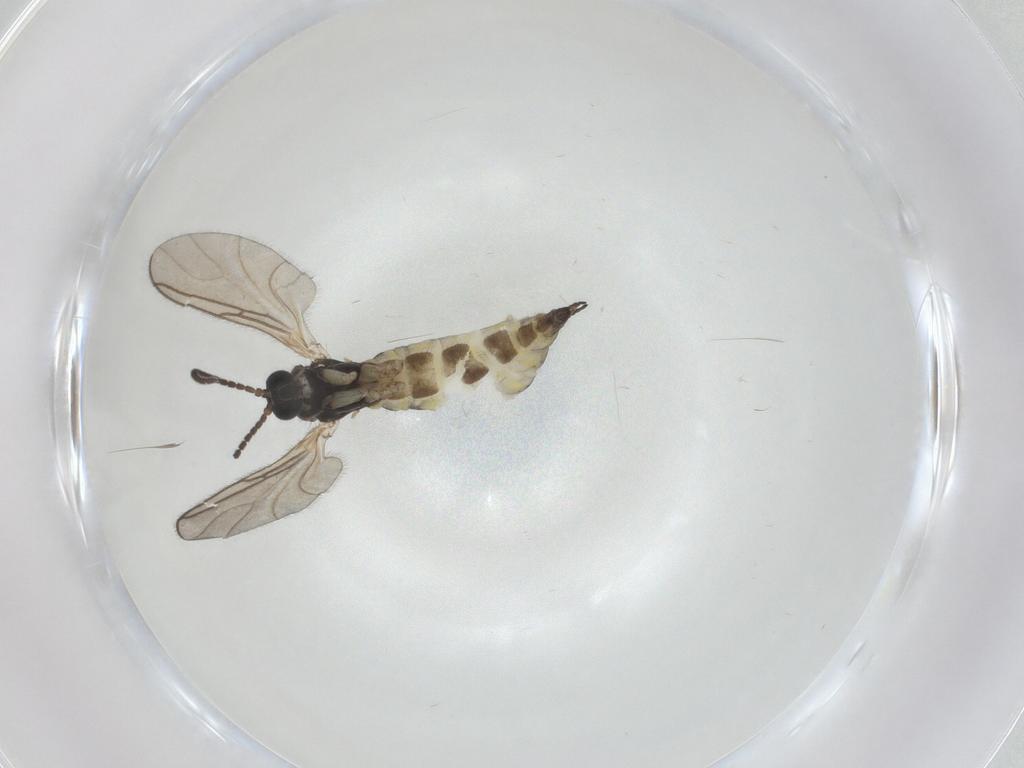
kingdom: Animalia
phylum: Arthropoda
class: Insecta
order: Diptera
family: Sciaridae
